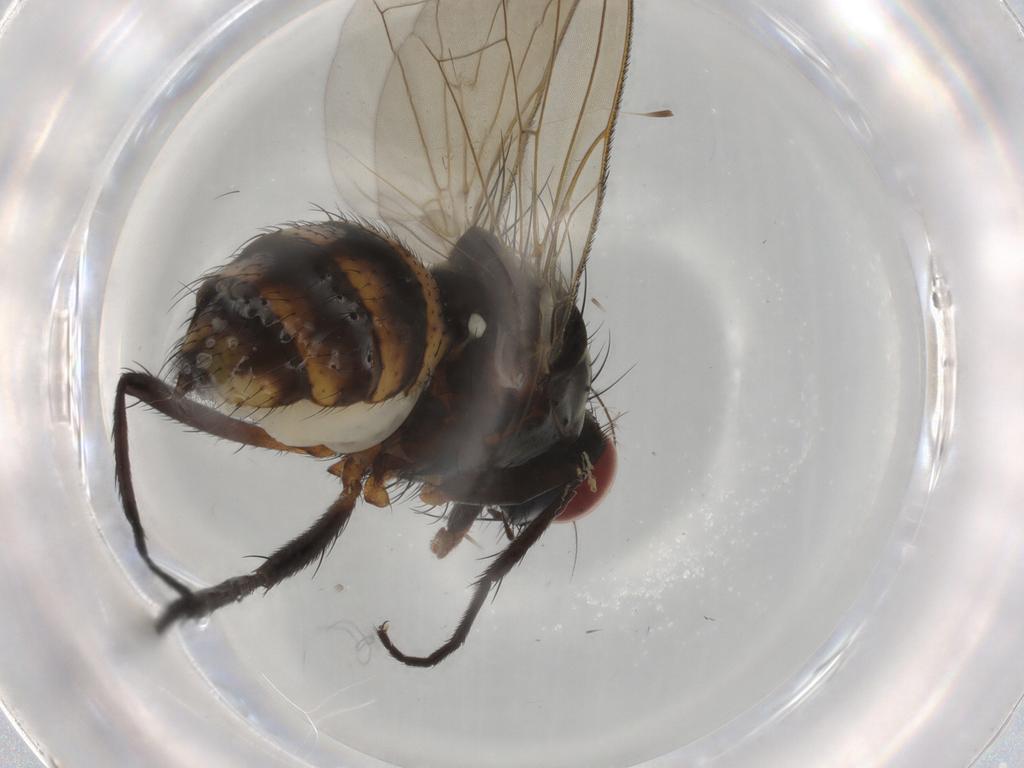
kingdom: Animalia
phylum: Arthropoda
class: Insecta
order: Diptera
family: Anthomyiidae
